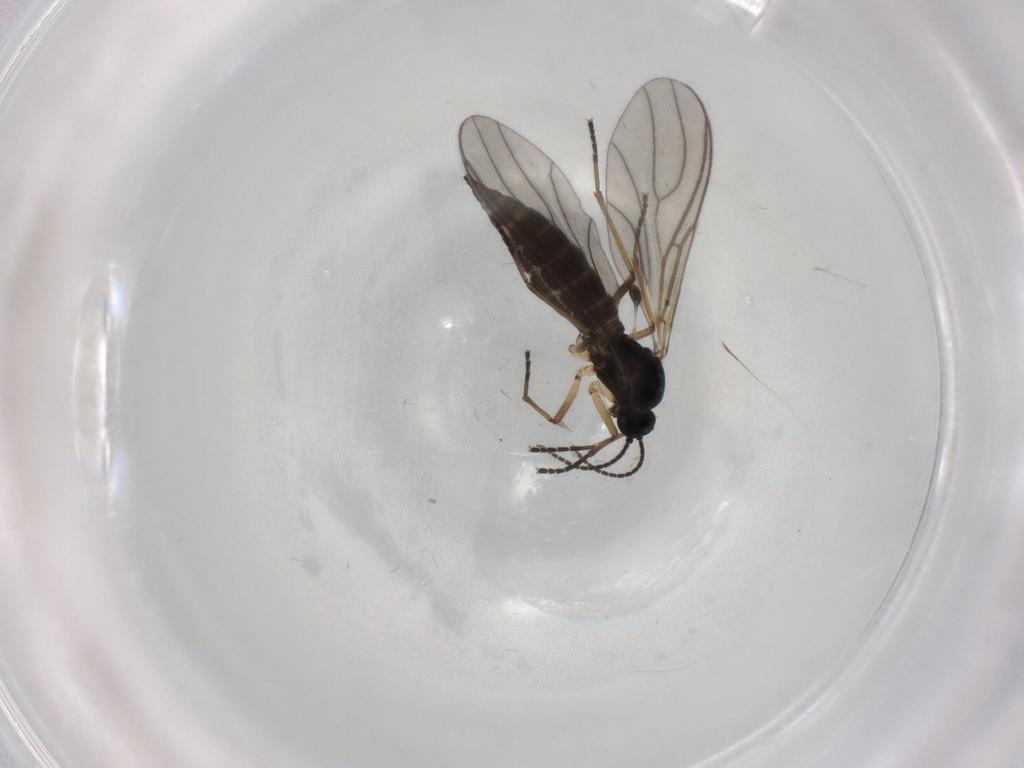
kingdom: Animalia
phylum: Arthropoda
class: Insecta
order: Diptera
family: Sciaridae
